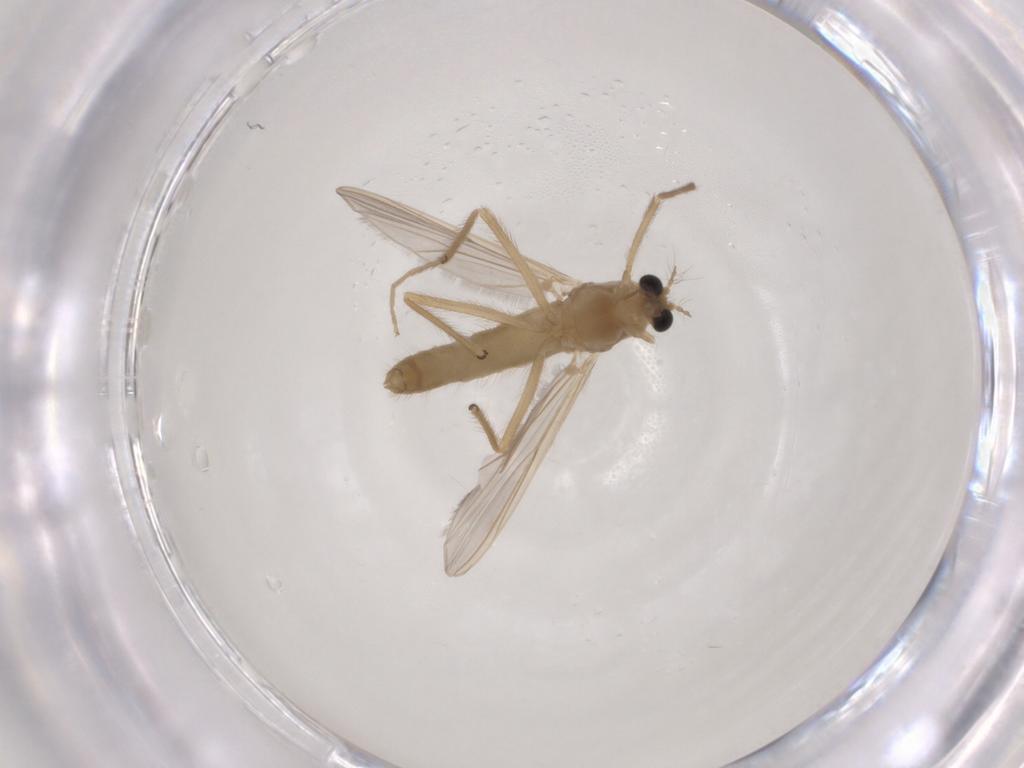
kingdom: Animalia
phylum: Arthropoda
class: Insecta
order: Diptera
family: Chironomidae
